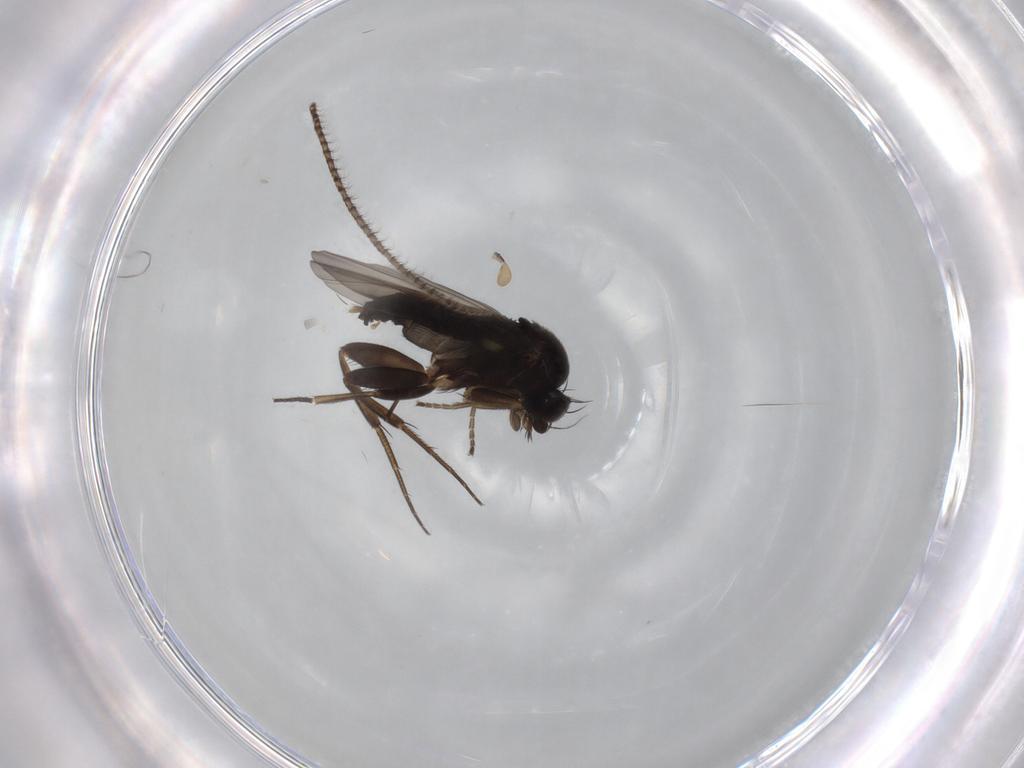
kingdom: Animalia
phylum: Arthropoda
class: Insecta
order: Diptera
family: Phoridae
